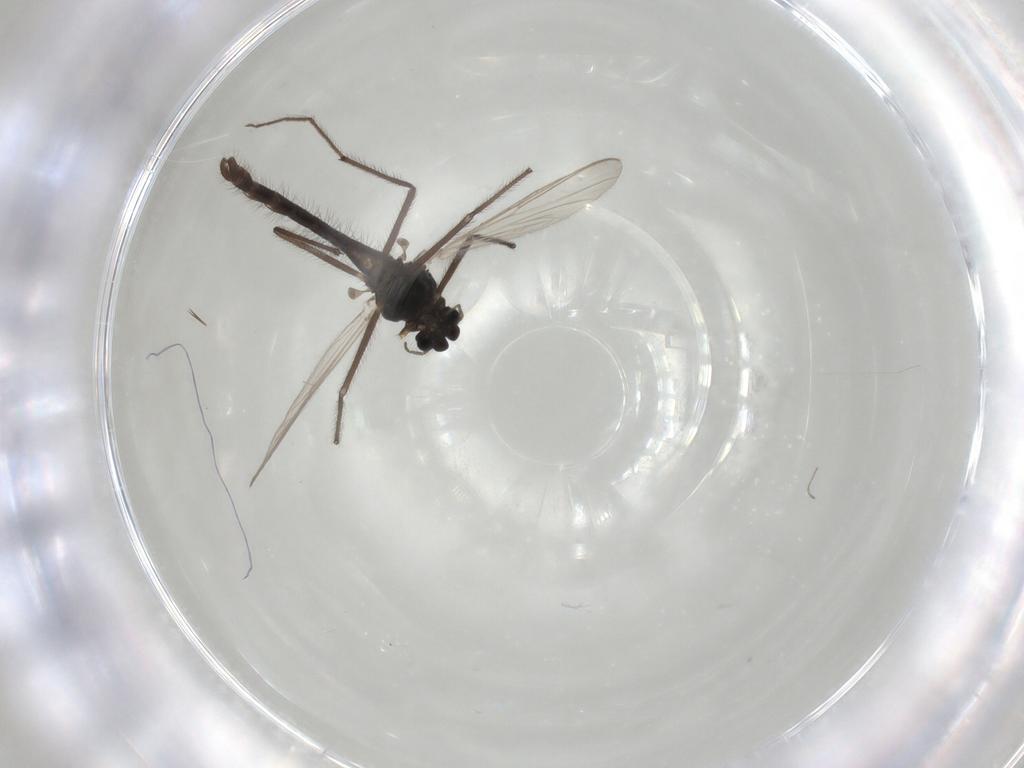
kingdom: Animalia
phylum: Arthropoda
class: Insecta
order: Diptera
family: Chironomidae
